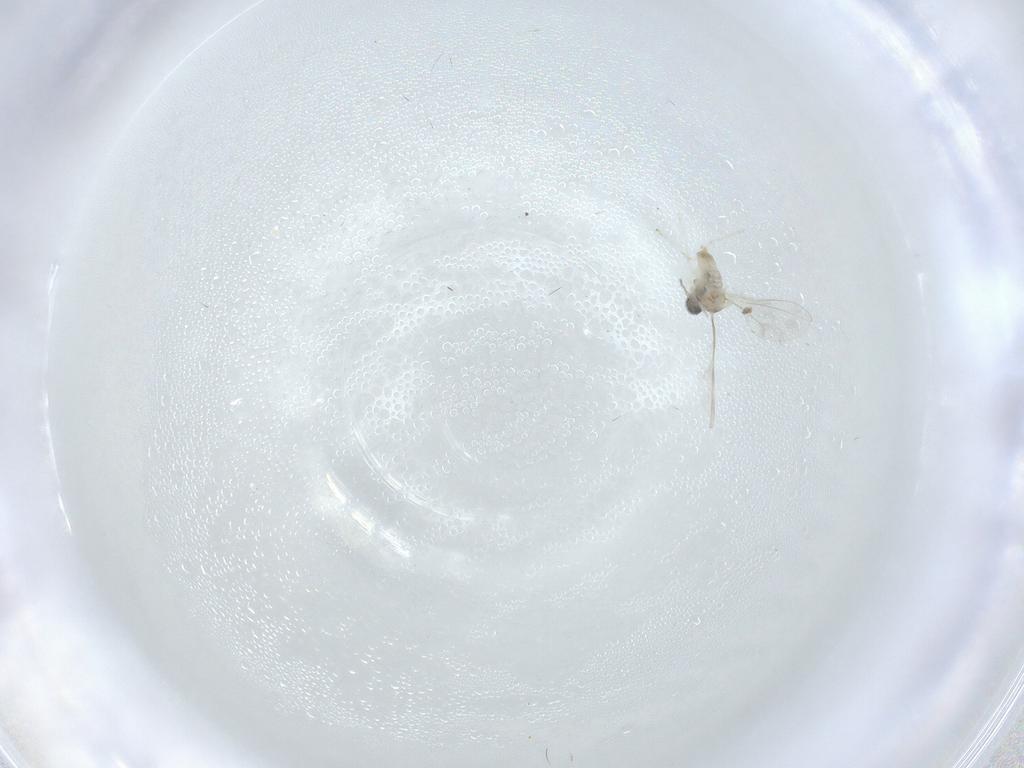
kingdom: Animalia
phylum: Arthropoda
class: Insecta
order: Diptera
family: Cecidomyiidae
